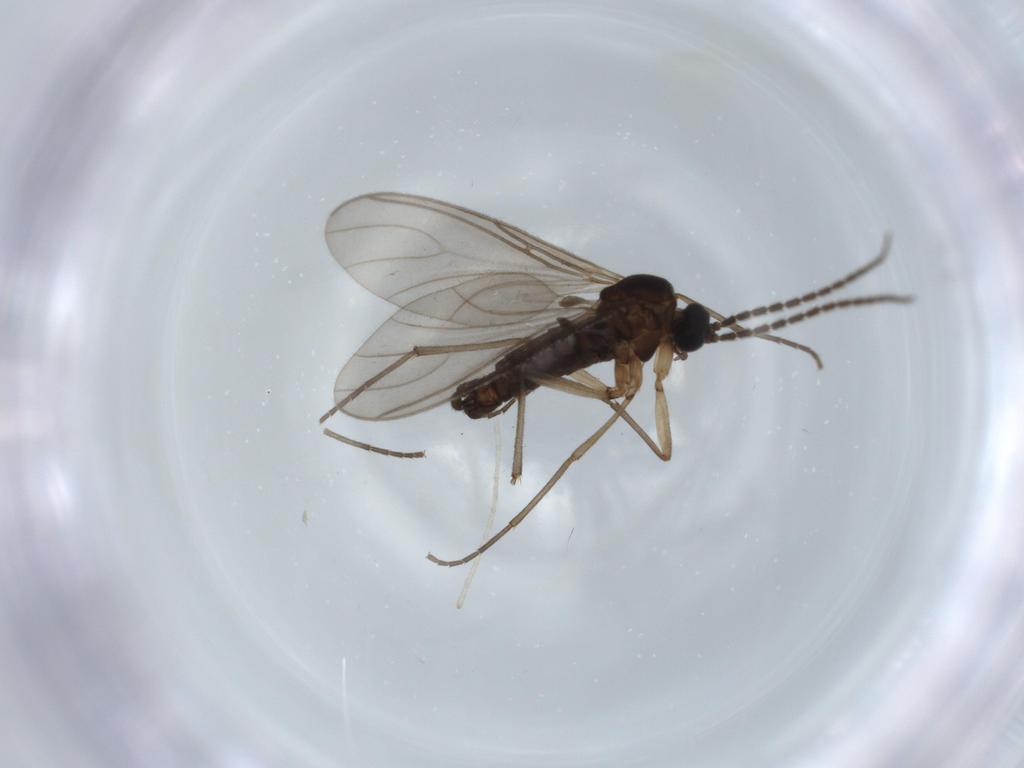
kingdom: Animalia
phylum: Arthropoda
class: Insecta
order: Diptera
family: Sciaridae
